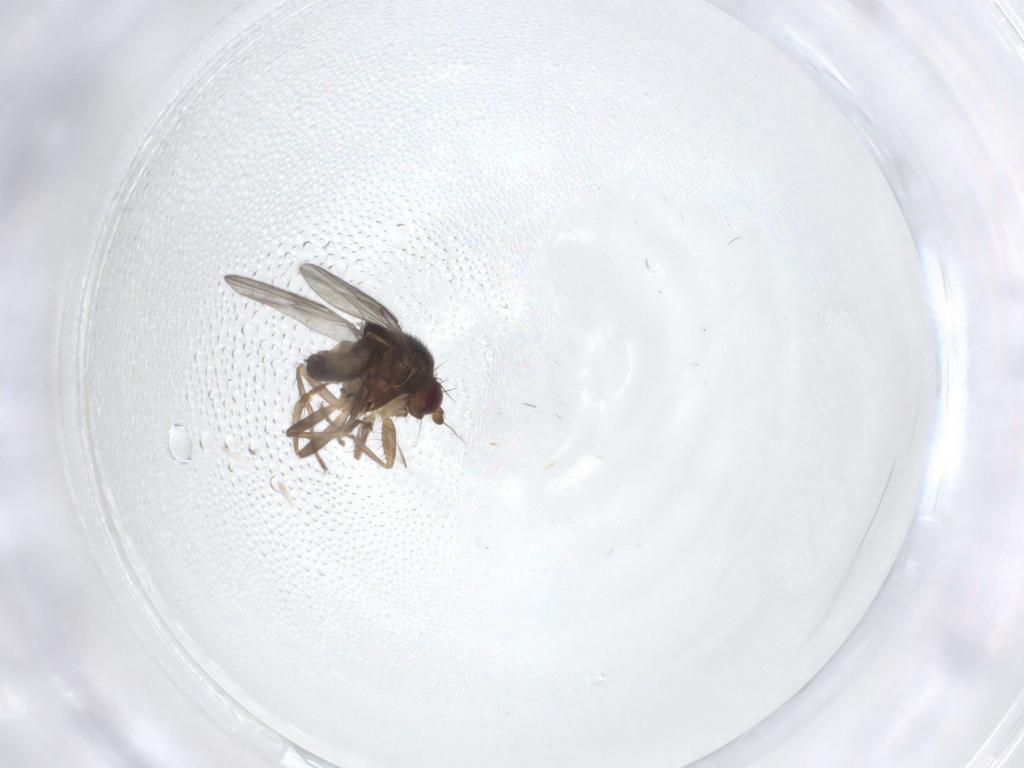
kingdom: Animalia
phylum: Arthropoda
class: Insecta
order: Diptera
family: Sphaeroceridae
